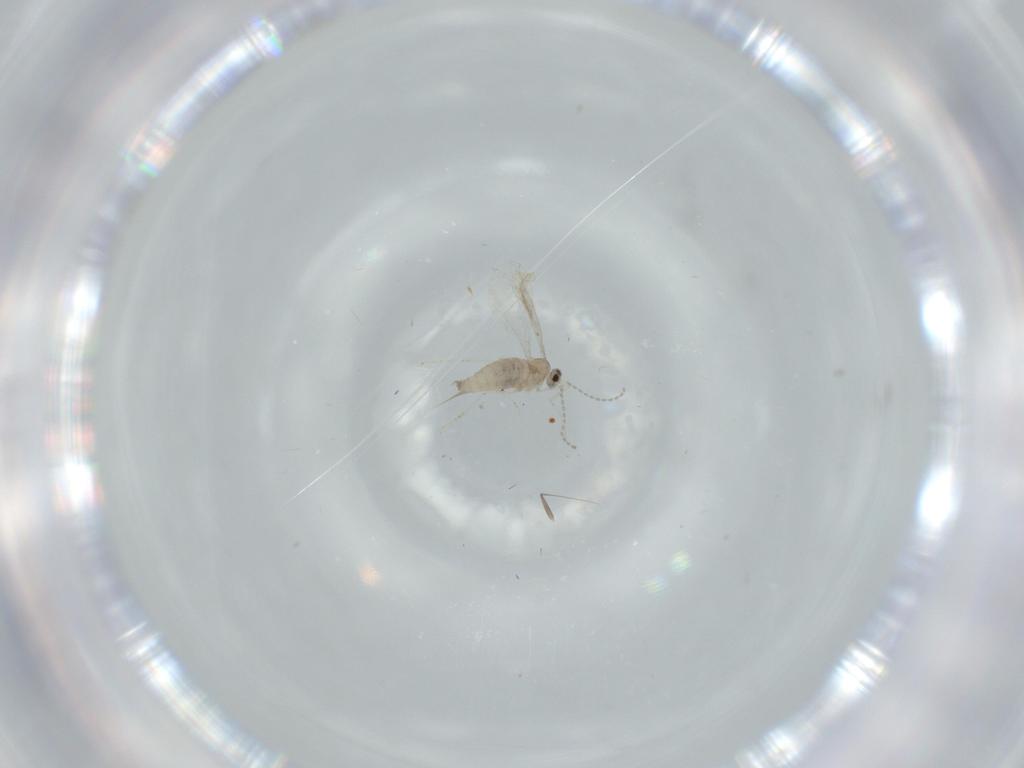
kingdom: Animalia
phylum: Arthropoda
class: Insecta
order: Diptera
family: Cecidomyiidae
